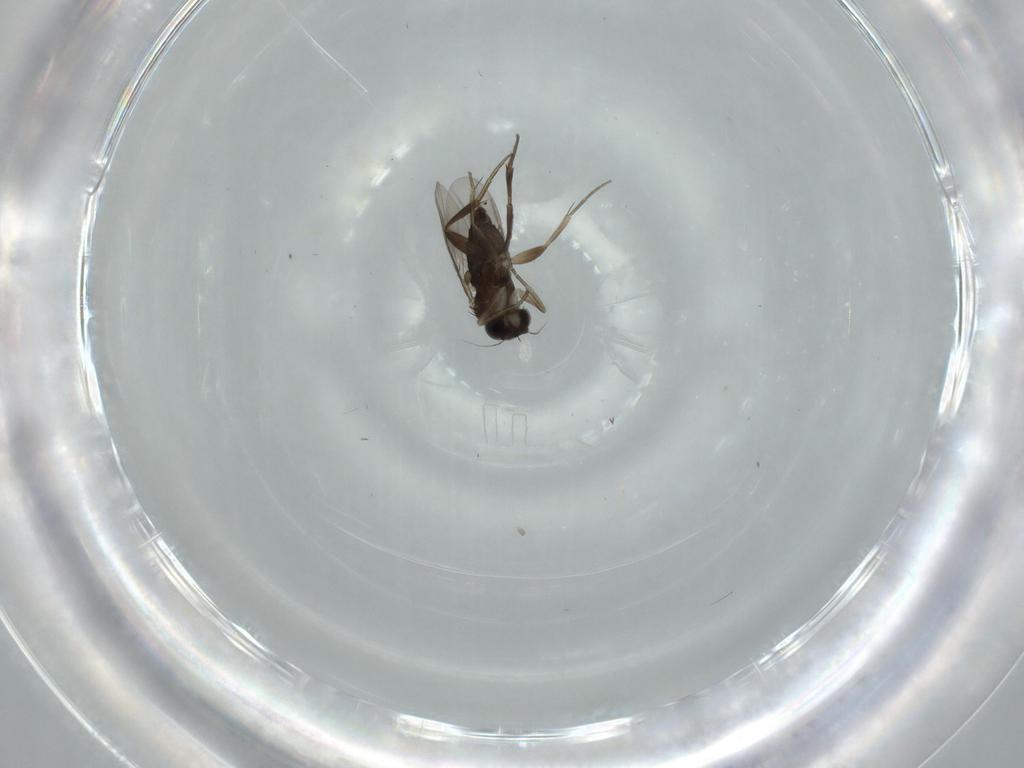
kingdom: Animalia
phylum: Arthropoda
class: Insecta
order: Diptera
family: Phoridae
